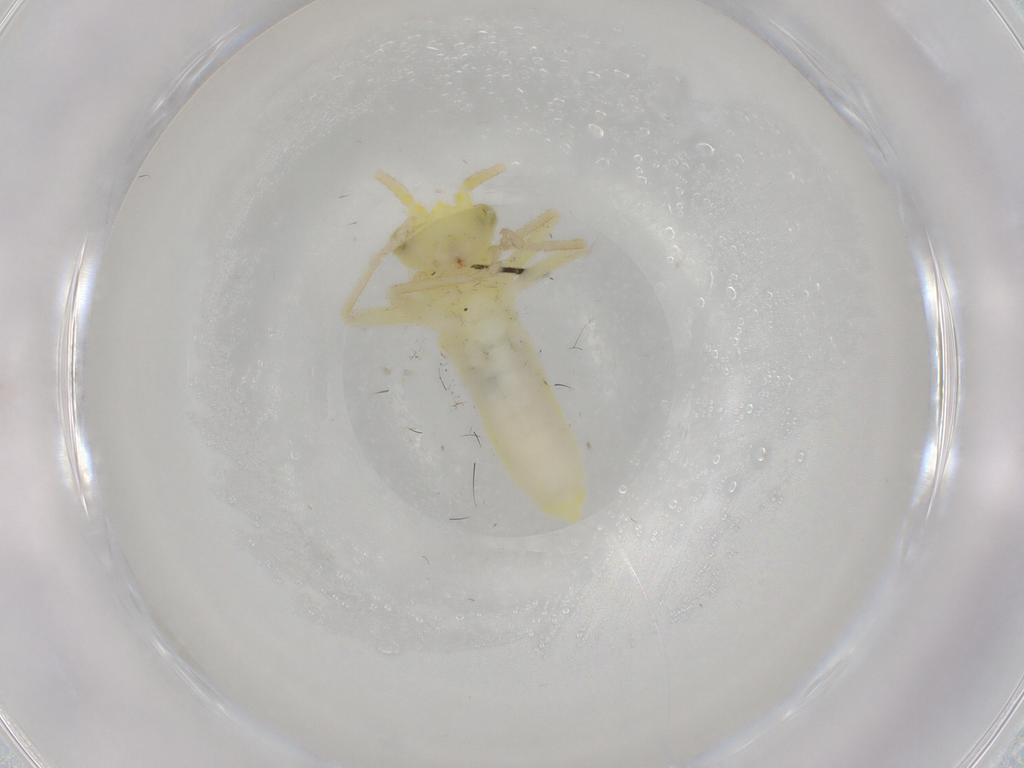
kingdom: Animalia
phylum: Arthropoda
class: Insecta
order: Orthoptera
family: Trigonidiidae
